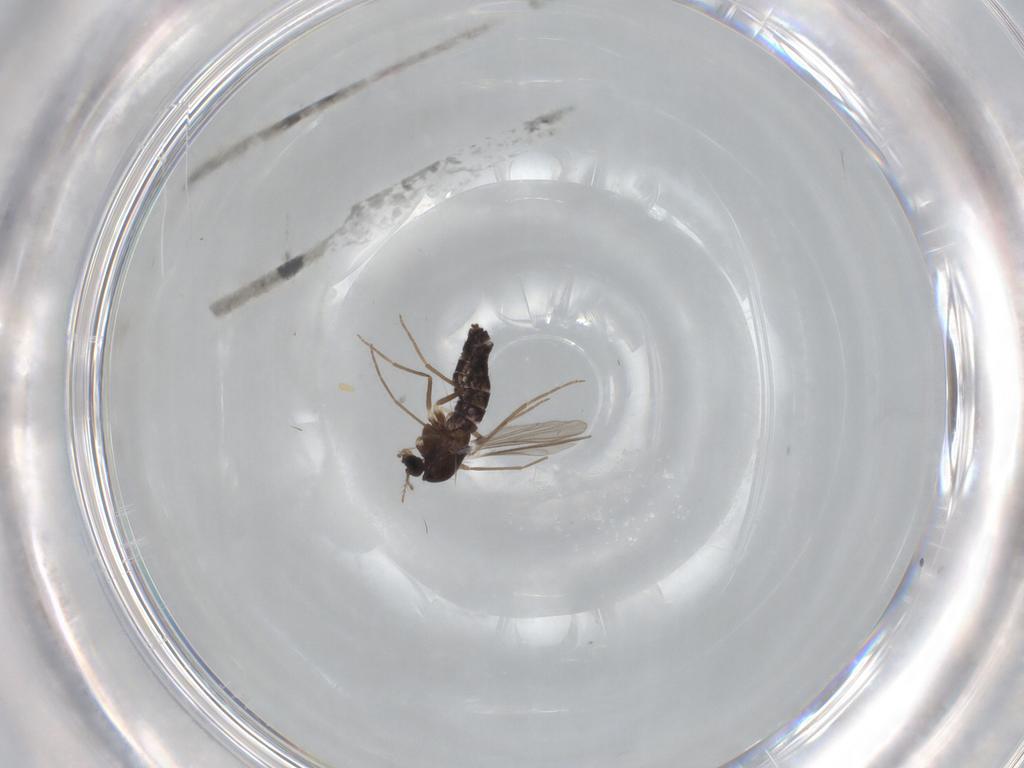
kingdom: Animalia
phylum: Arthropoda
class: Insecta
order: Diptera
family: Chironomidae
